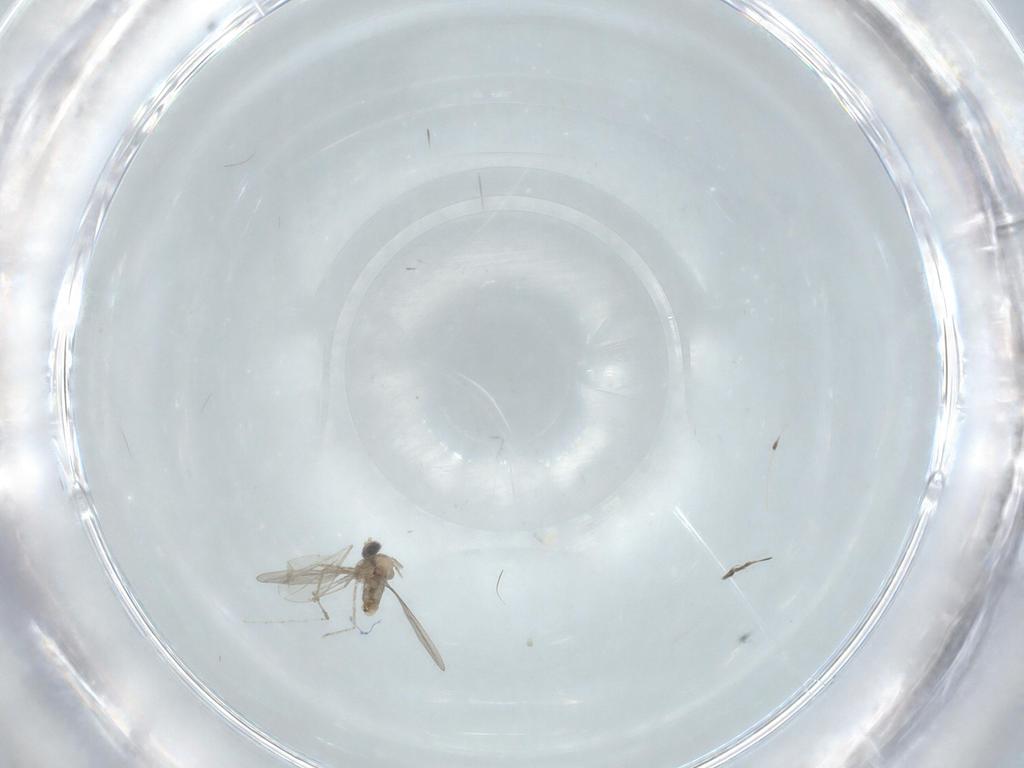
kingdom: Animalia
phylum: Arthropoda
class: Insecta
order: Diptera
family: Cecidomyiidae
